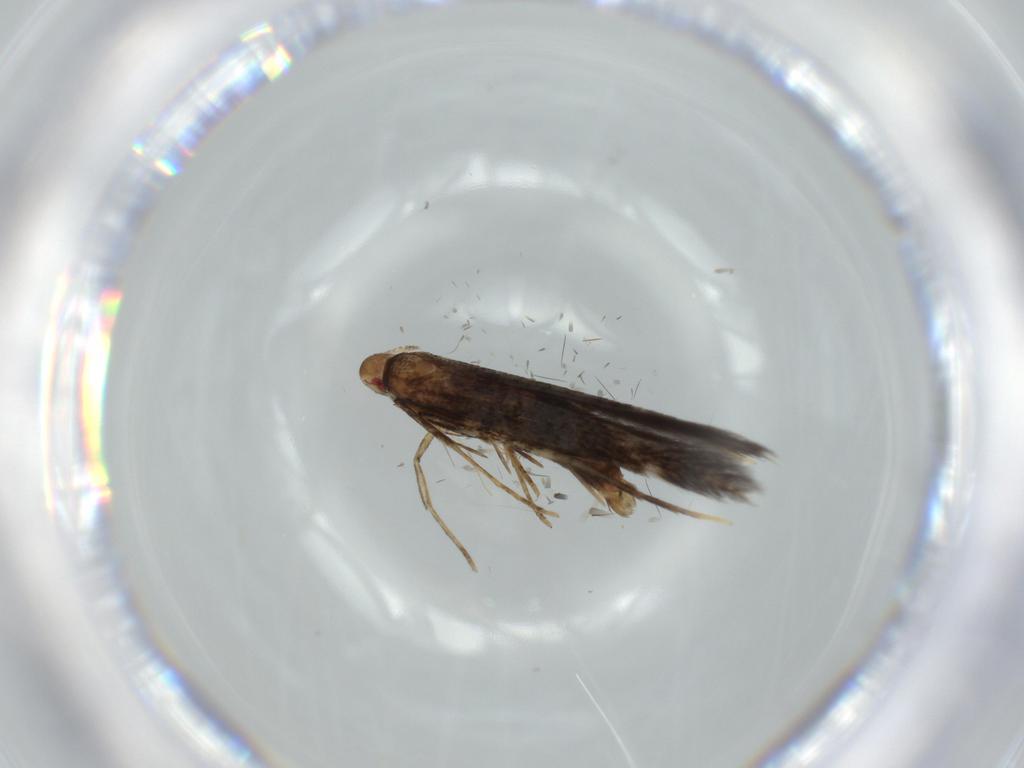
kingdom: Animalia
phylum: Arthropoda
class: Insecta
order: Lepidoptera
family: Cosmopterigidae
